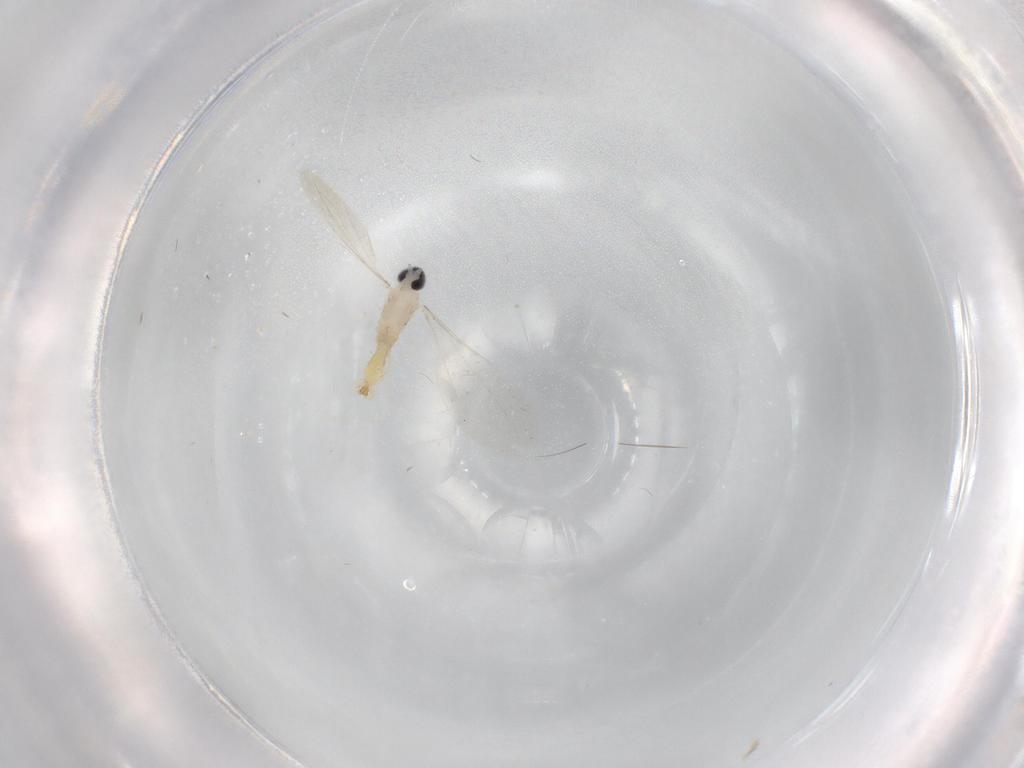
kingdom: Animalia
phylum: Arthropoda
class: Insecta
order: Diptera
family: Cecidomyiidae
